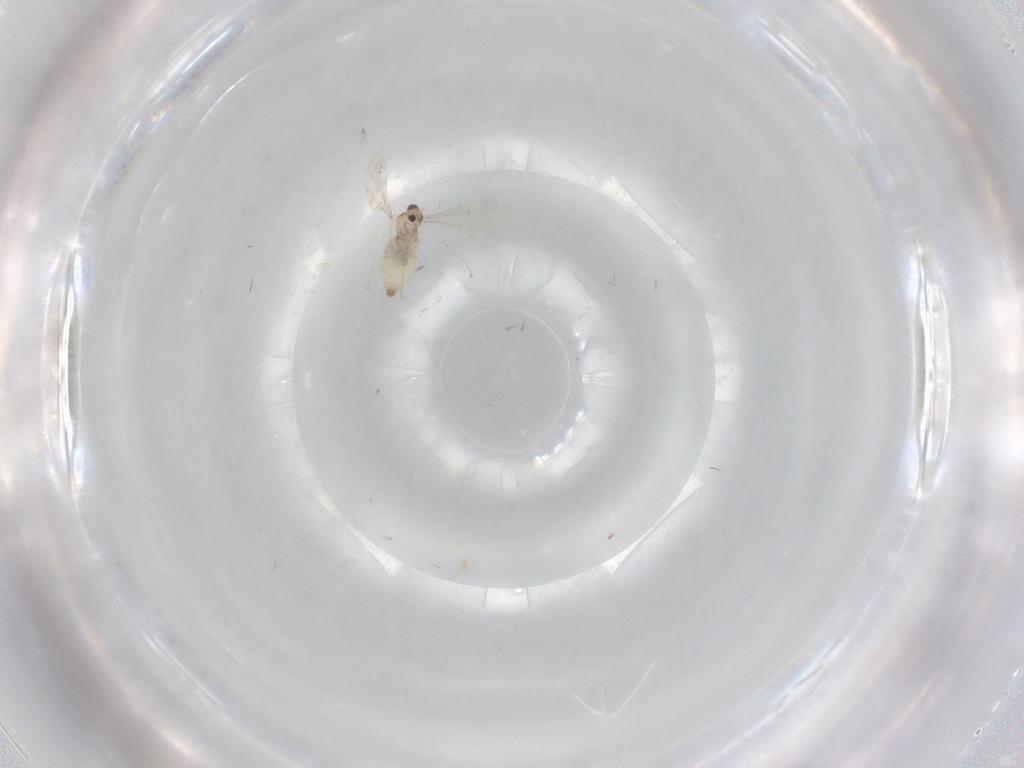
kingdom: Animalia
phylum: Arthropoda
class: Insecta
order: Diptera
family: Cecidomyiidae
